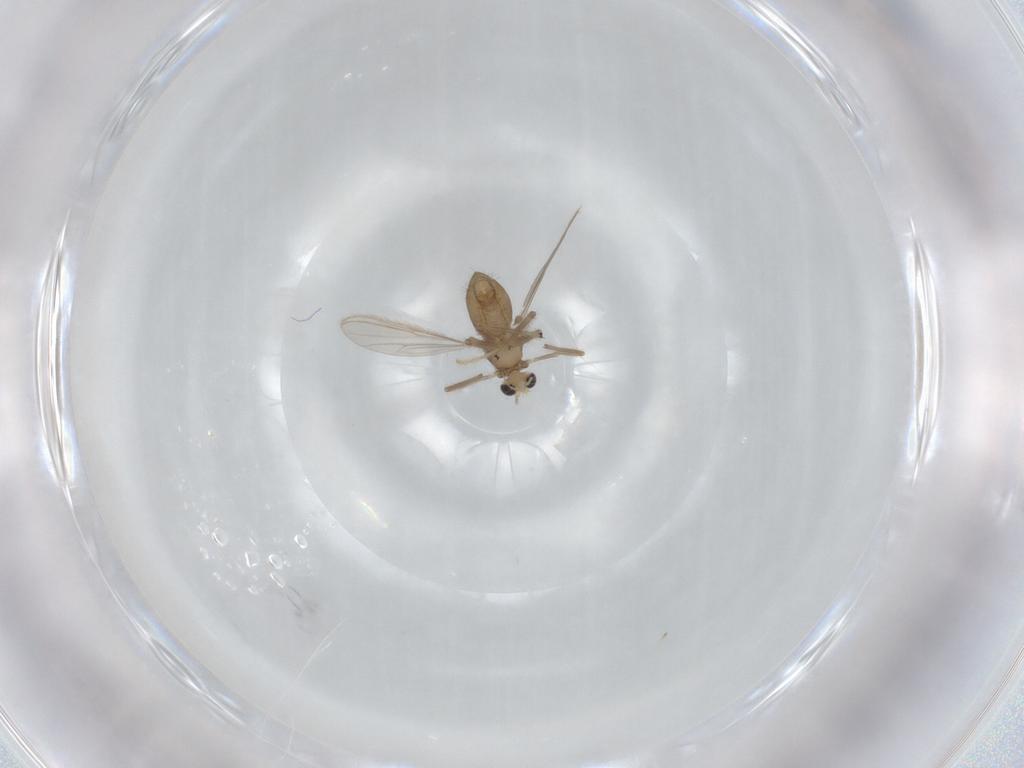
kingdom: Animalia
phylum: Arthropoda
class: Insecta
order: Diptera
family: Chironomidae
